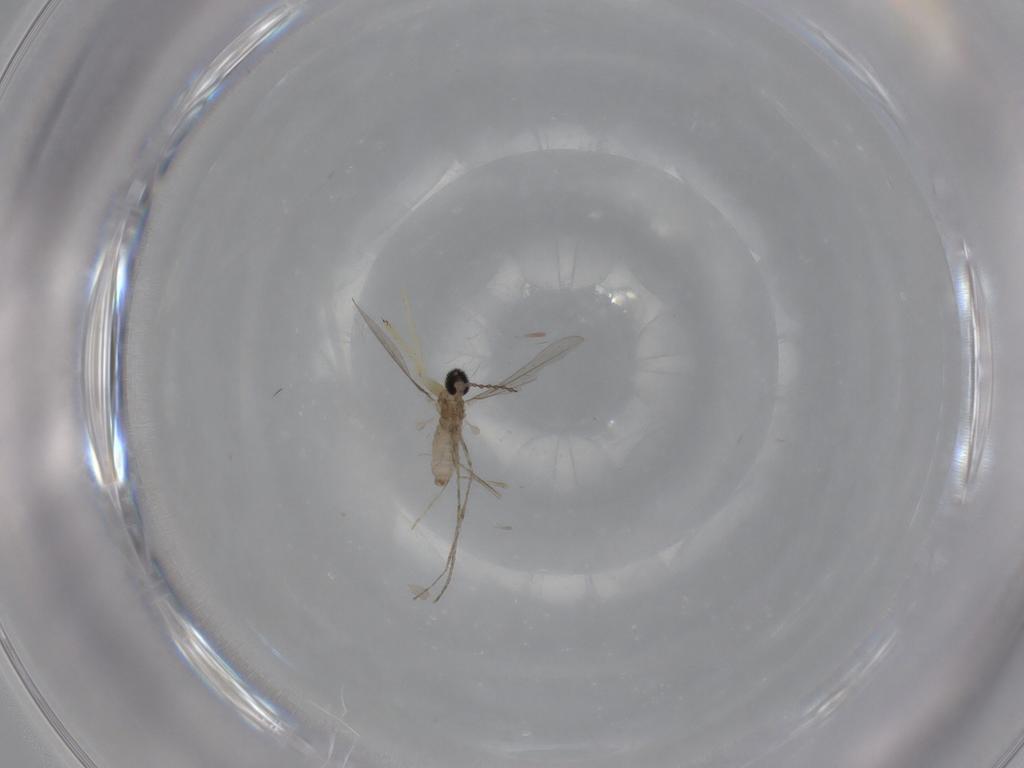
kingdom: Animalia
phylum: Arthropoda
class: Insecta
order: Diptera
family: Cecidomyiidae
